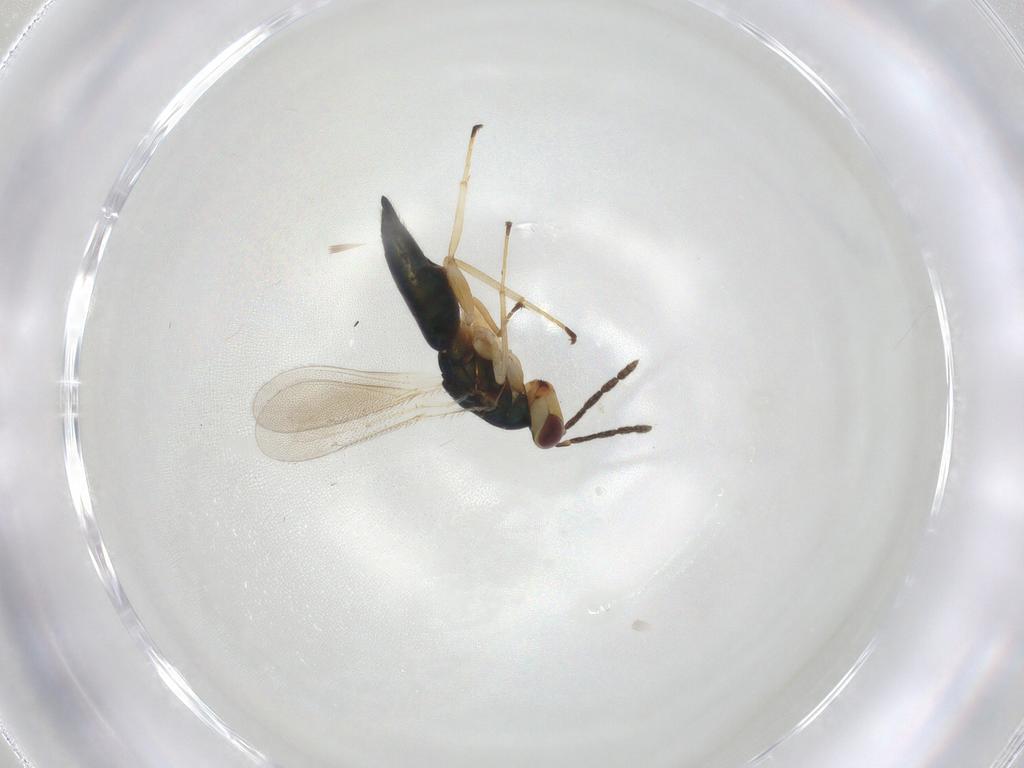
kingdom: Animalia
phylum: Arthropoda
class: Insecta
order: Hymenoptera
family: Eulophidae
